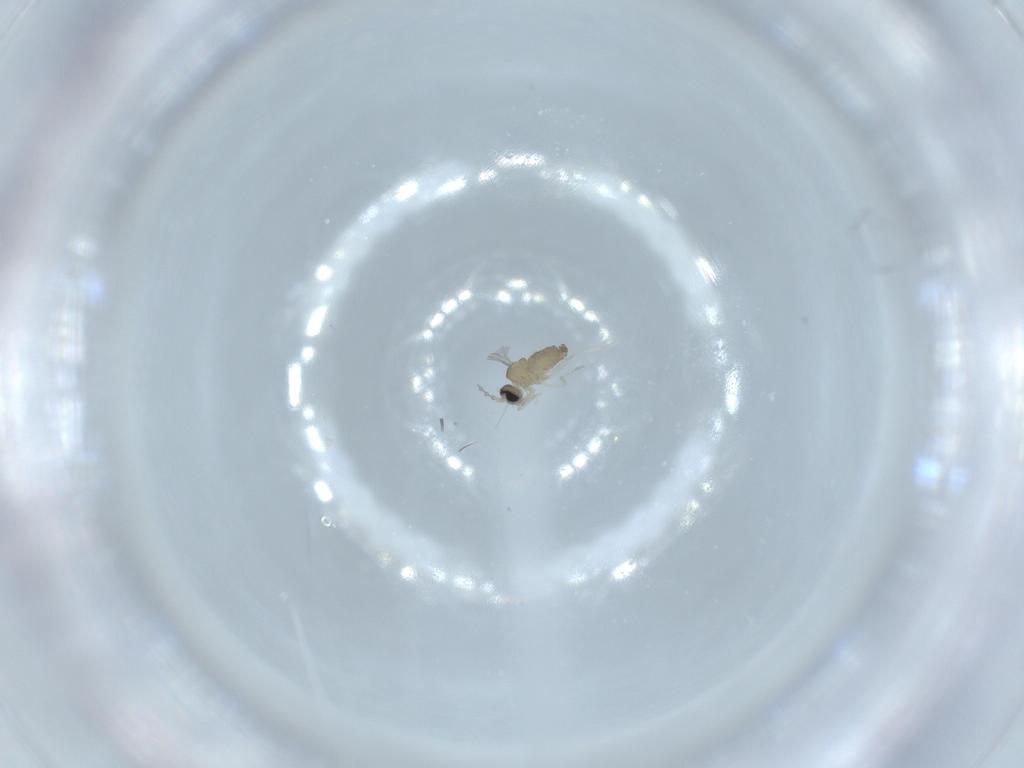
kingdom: Animalia
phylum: Arthropoda
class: Insecta
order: Diptera
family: Cecidomyiidae
